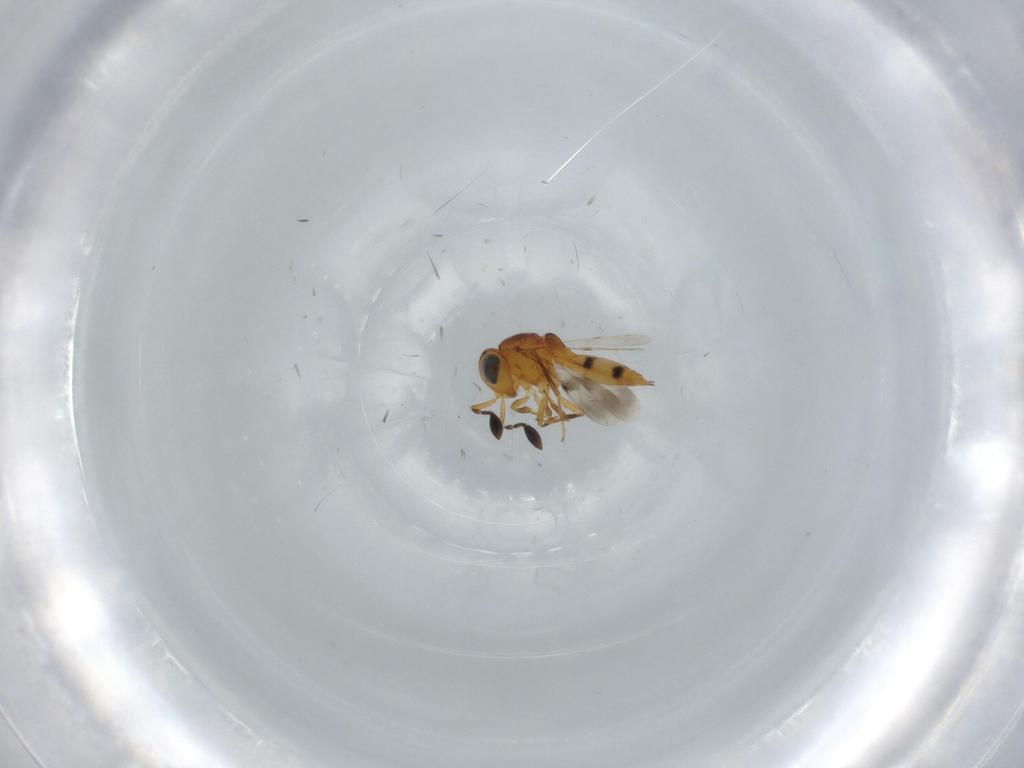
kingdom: Animalia
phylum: Arthropoda
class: Insecta
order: Hymenoptera
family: Scelionidae
